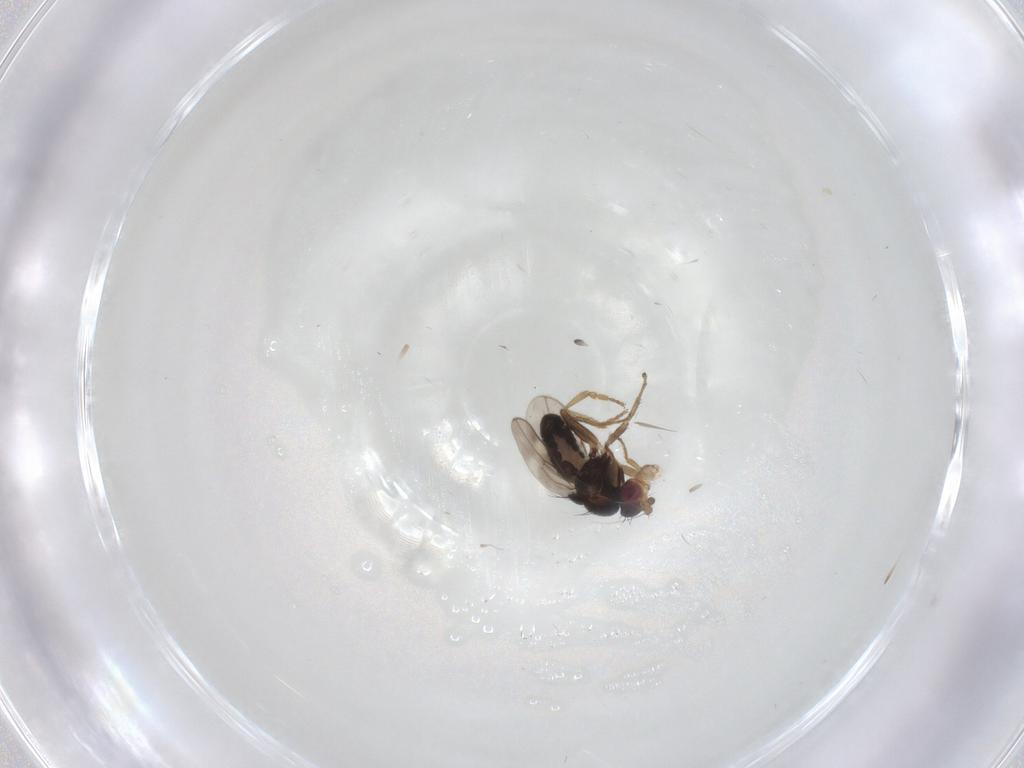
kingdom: Animalia
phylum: Arthropoda
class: Insecta
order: Diptera
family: Sphaeroceridae
